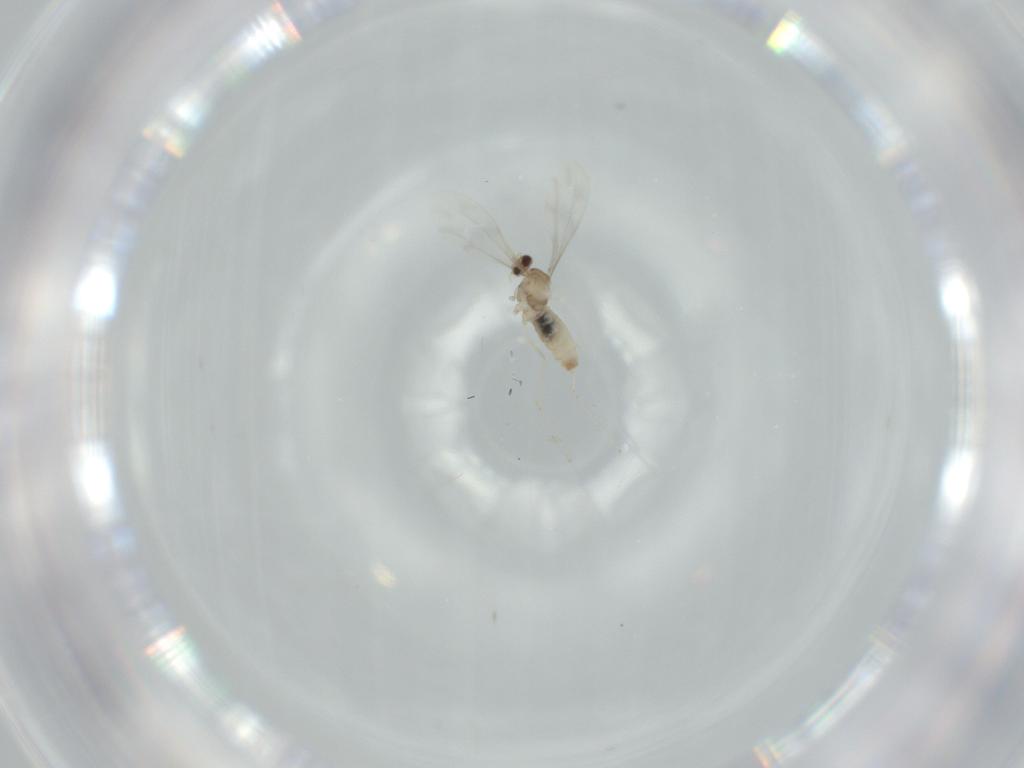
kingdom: Animalia
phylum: Arthropoda
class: Insecta
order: Diptera
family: Cecidomyiidae
